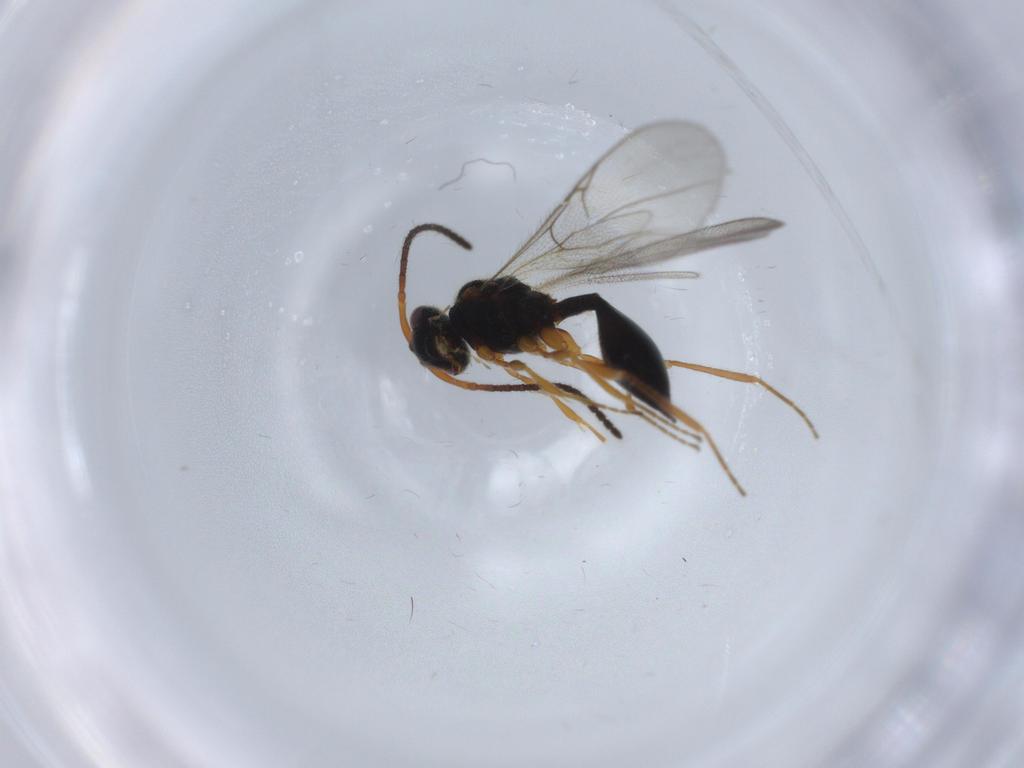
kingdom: Animalia
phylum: Arthropoda
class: Insecta
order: Hymenoptera
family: Diapriidae
